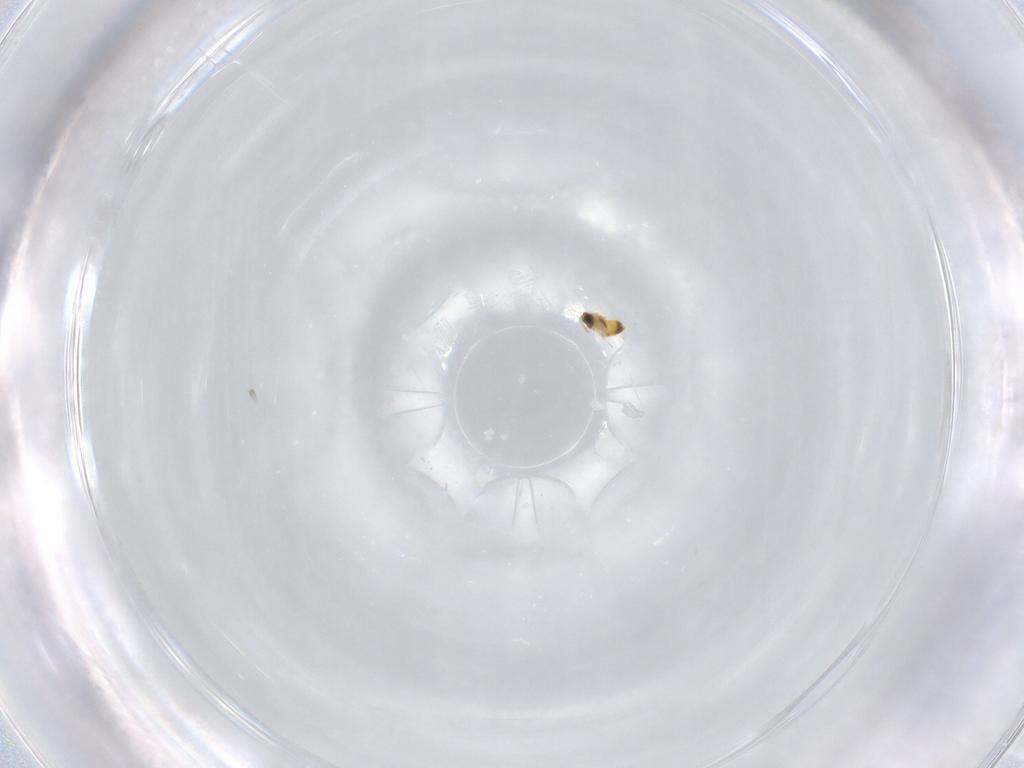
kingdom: Animalia
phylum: Arthropoda
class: Insecta
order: Hymenoptera
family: Trichogrammatidae
